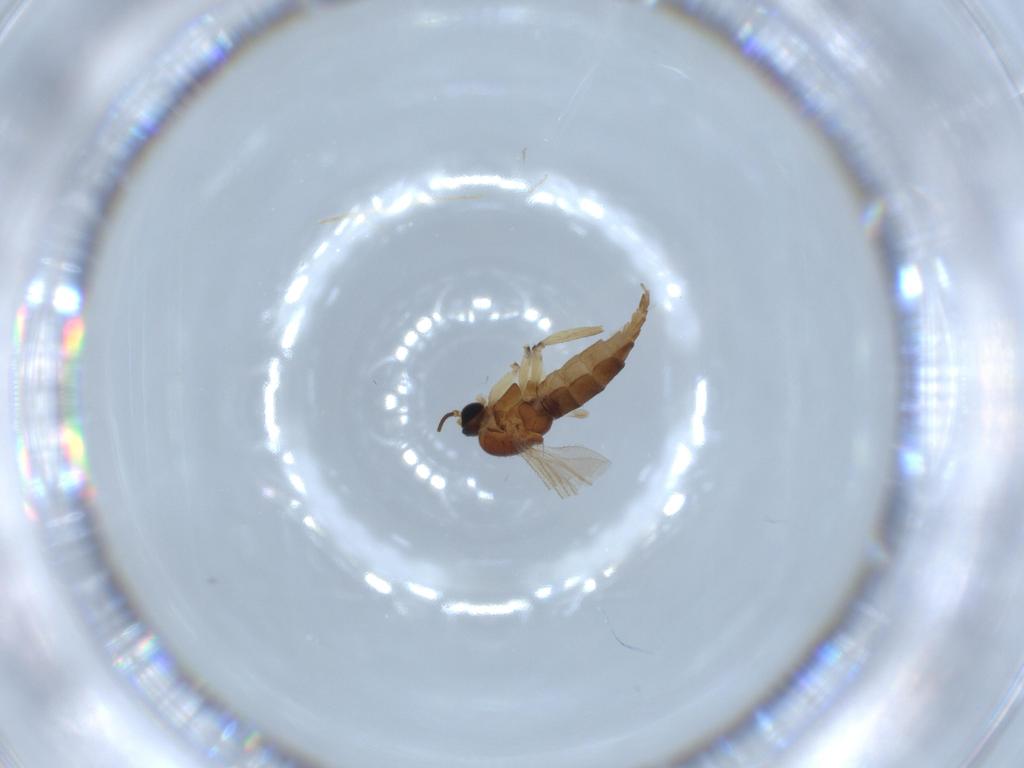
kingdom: Animalia
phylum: Arthropoda
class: Insecta
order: Diptera
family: Sciaridae
